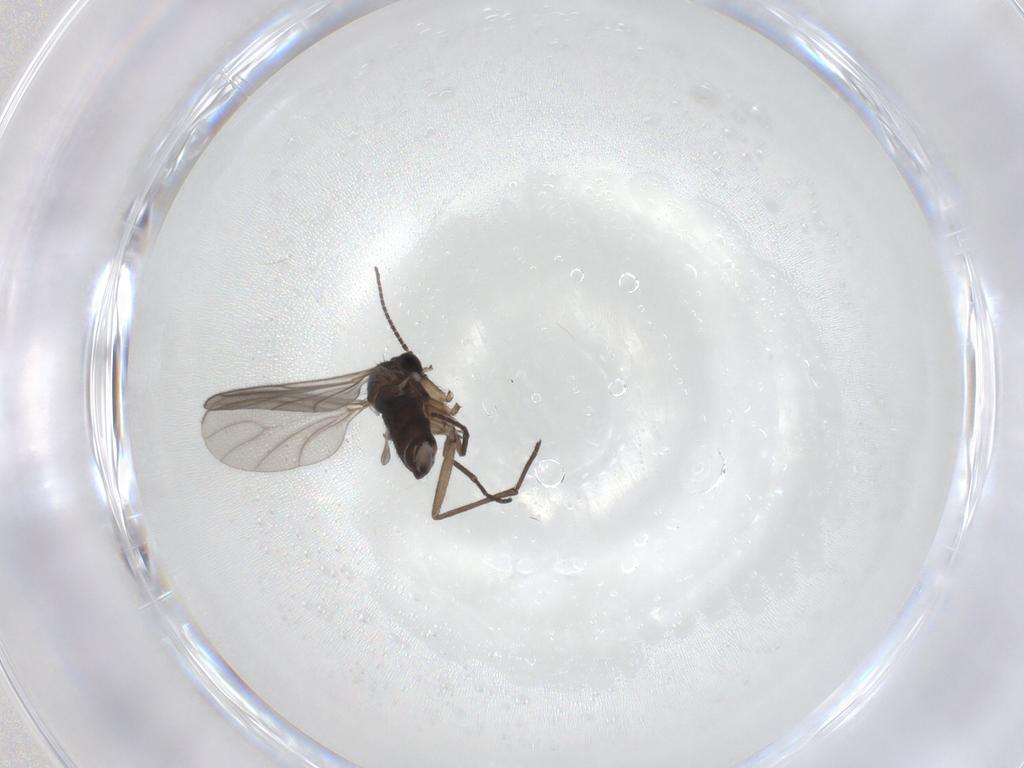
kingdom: Animalia
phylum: Arthropoda
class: Insecta
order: Diptera
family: Sciaridae
